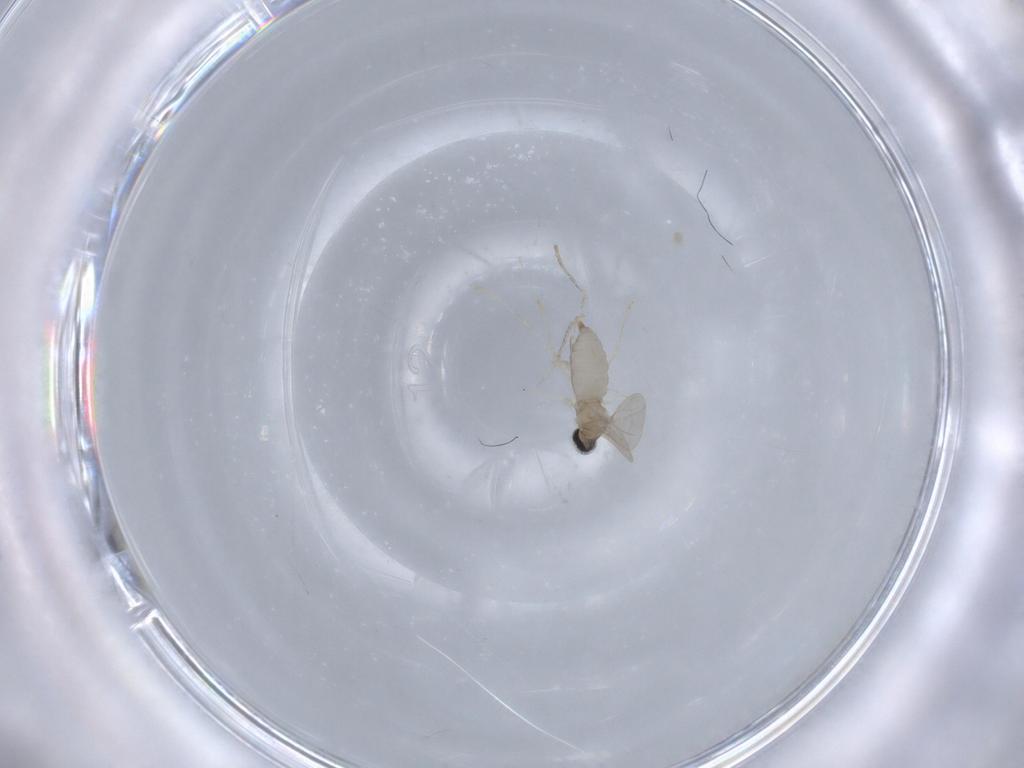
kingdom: Animalia
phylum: Arthropoda
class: Insecta
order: Diptera
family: Cecidomyiidae
